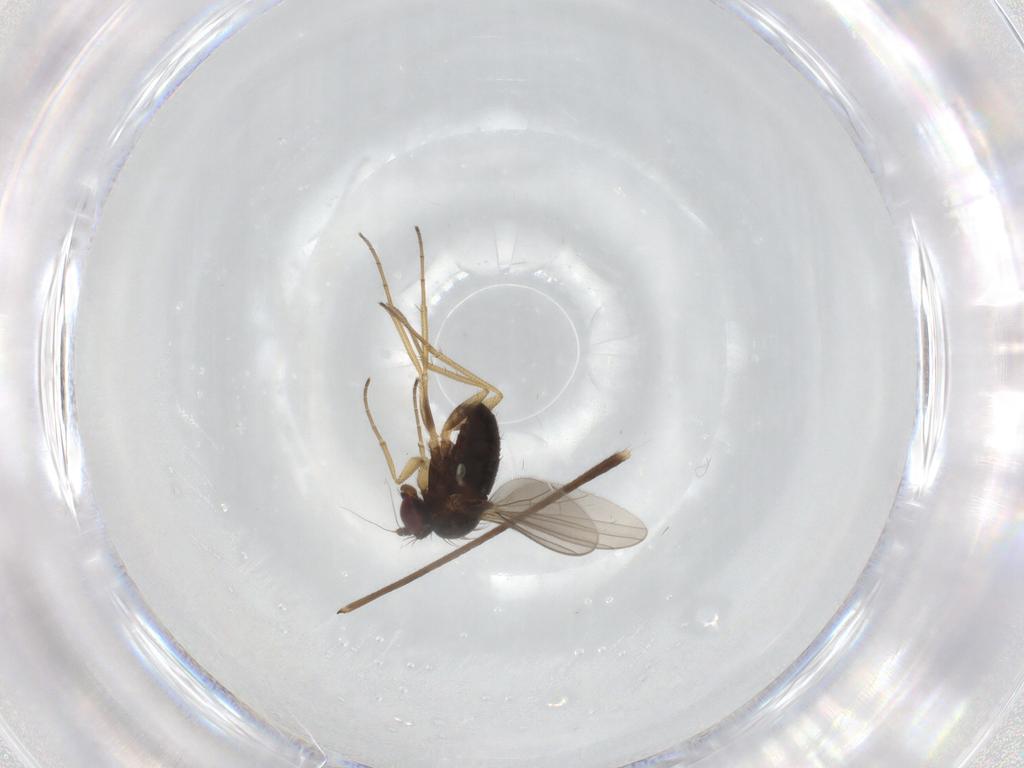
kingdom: Animalia
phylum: Arthropoda
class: Insecta
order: Diptera
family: Dolichopodidae
